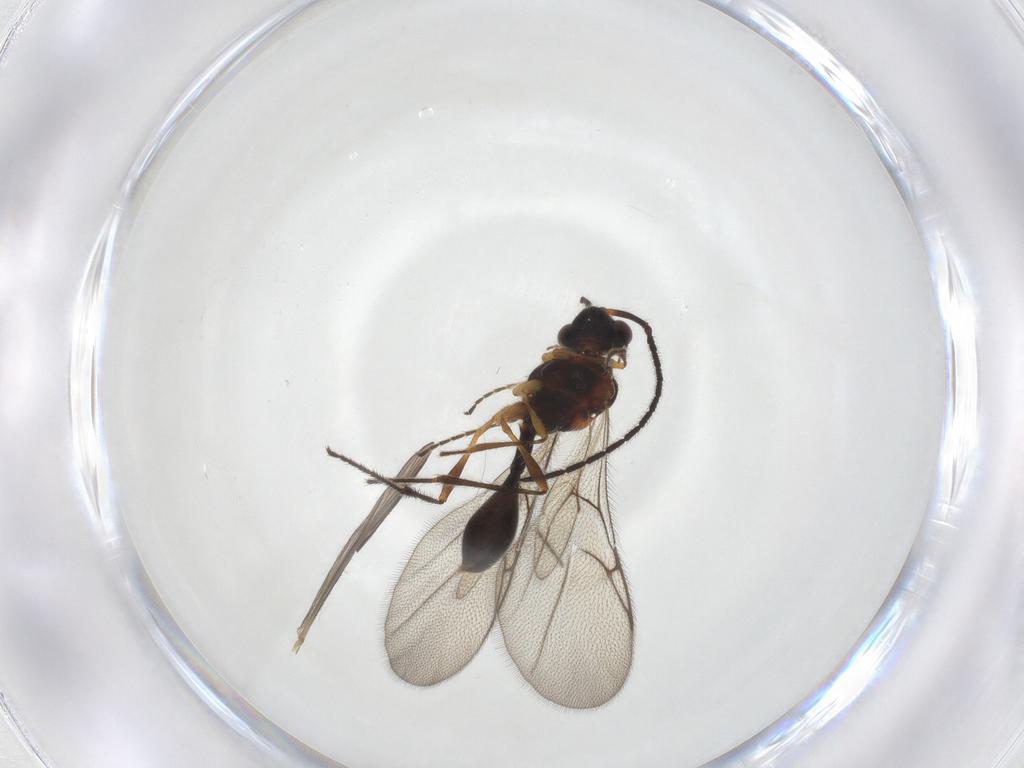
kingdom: Animalia
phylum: Arthropoda
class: Insecta
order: Hymenoptera
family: Diapriidae
